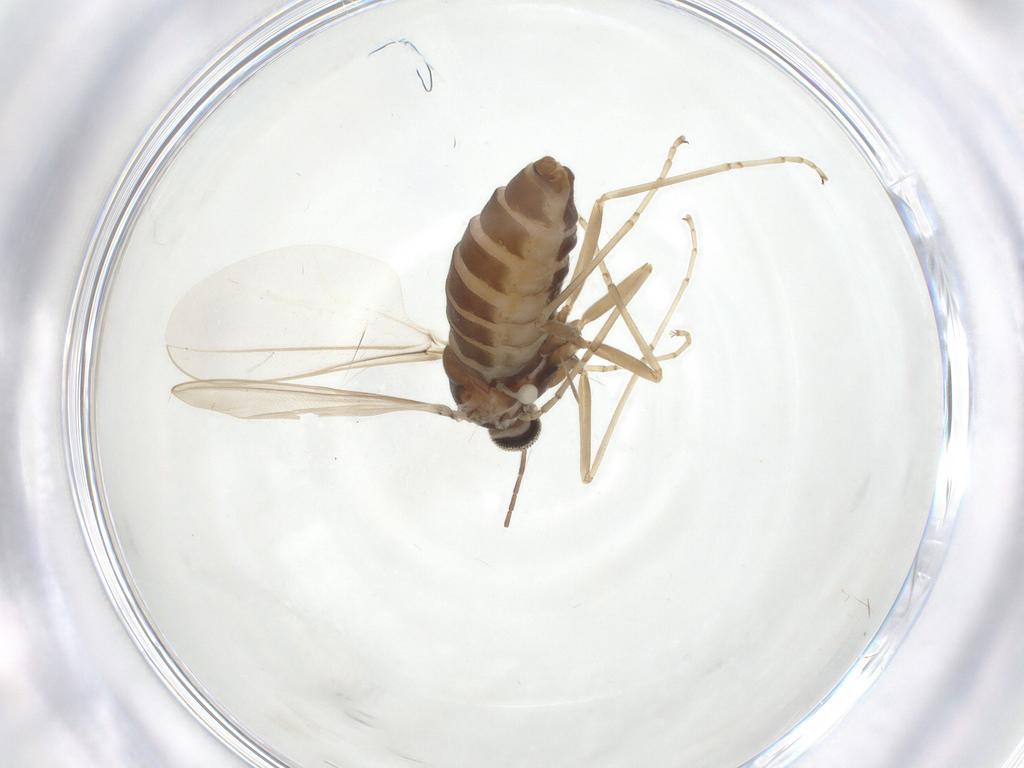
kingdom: Animalia
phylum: Arthropoda
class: Insecta
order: Diptera
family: Cecidomyiidae
